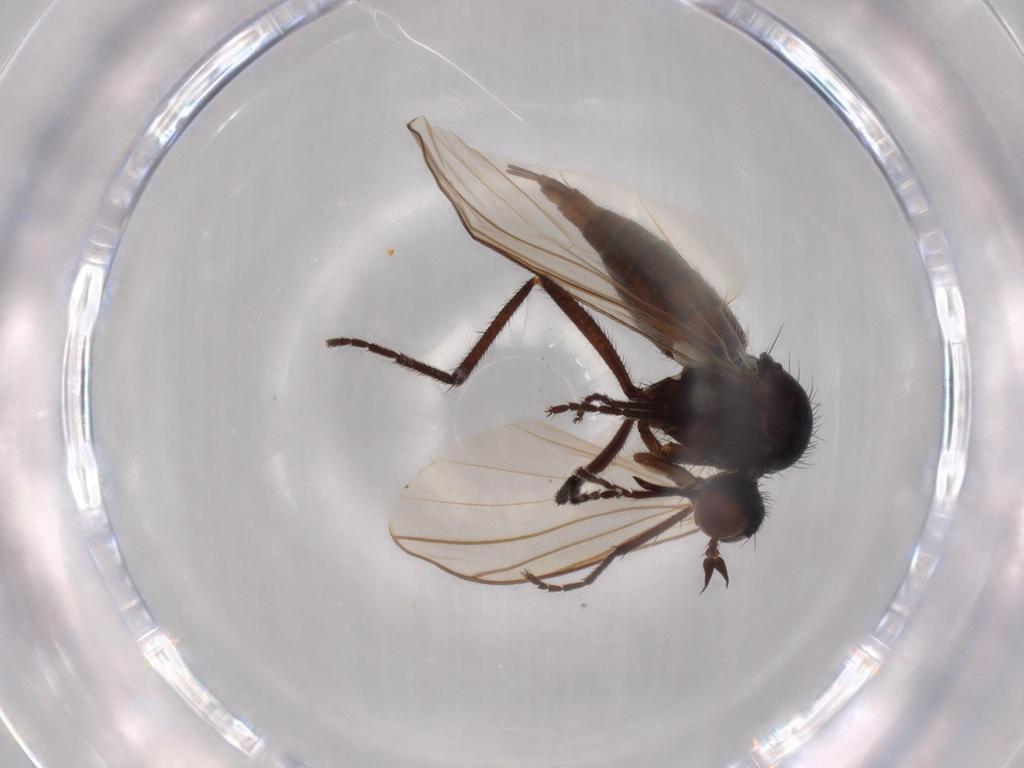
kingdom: Animalia
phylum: Arthropoda
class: Insecta
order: Diptera
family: Empididae
